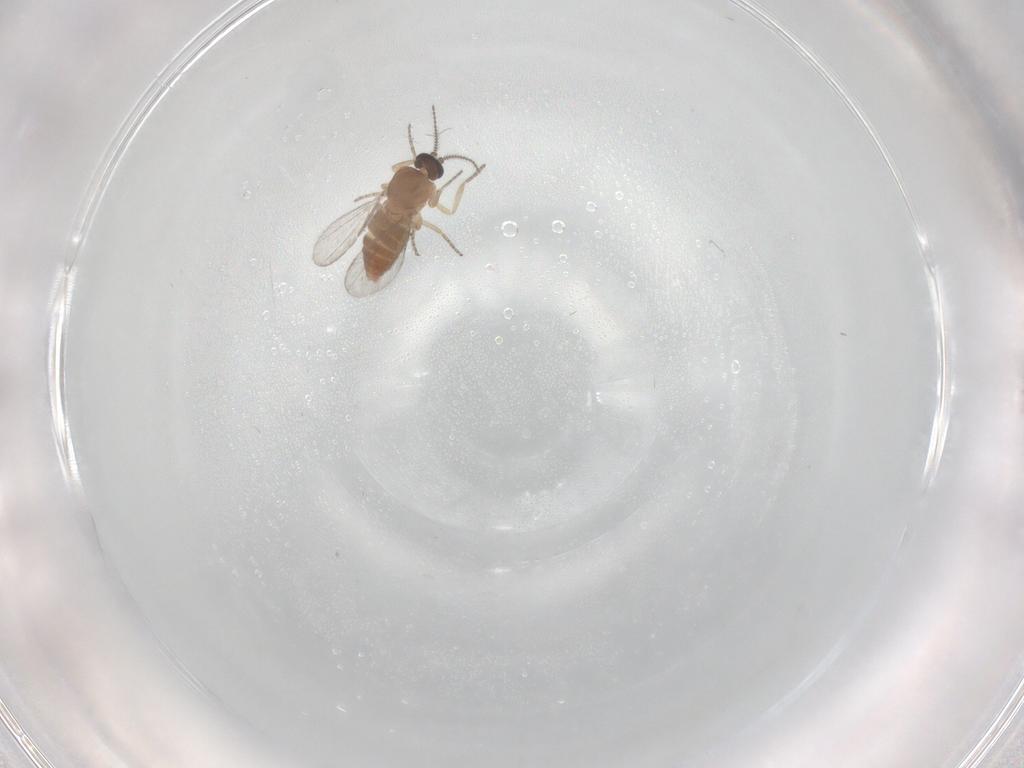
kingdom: Animalia
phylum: Arthropoda
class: Insecta
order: Diptera
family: Ceratopogonidae
